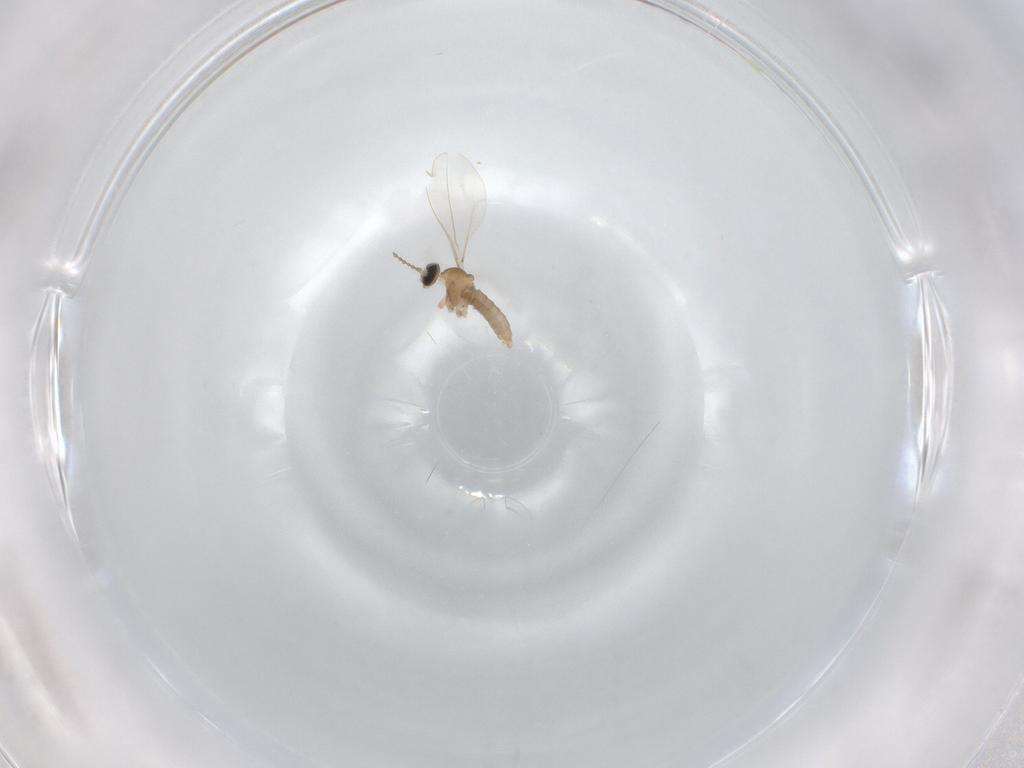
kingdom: Animalia
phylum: Arthropoda
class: Insecta
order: Diptera
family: Cecidomyiidae
